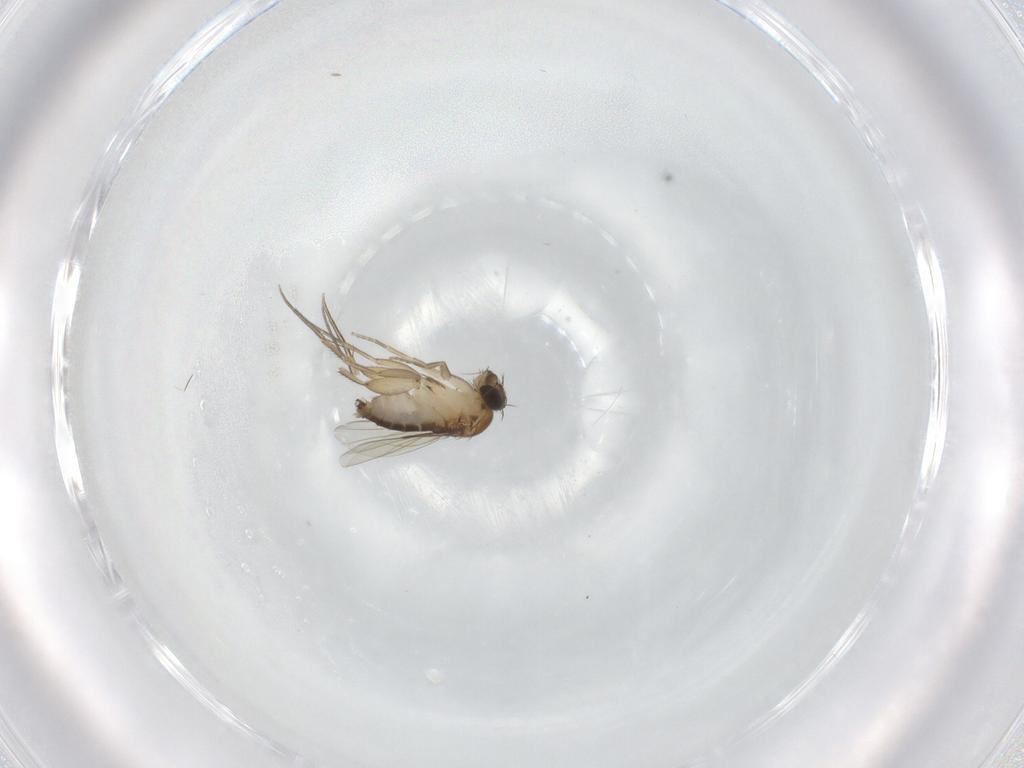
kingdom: Animalia
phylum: Arthropoda
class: Insecta
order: Diptera
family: Phoridae
